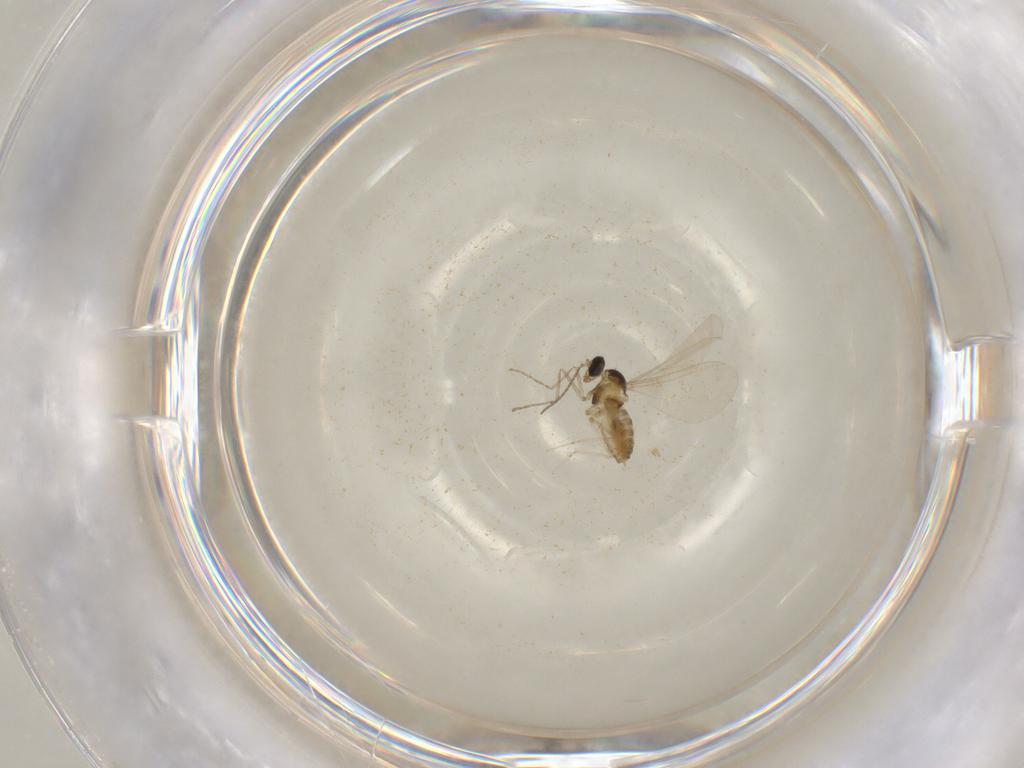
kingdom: Animalia
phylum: Arthropoda
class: Insecta
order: Diptera
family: Cecidomyiidae
